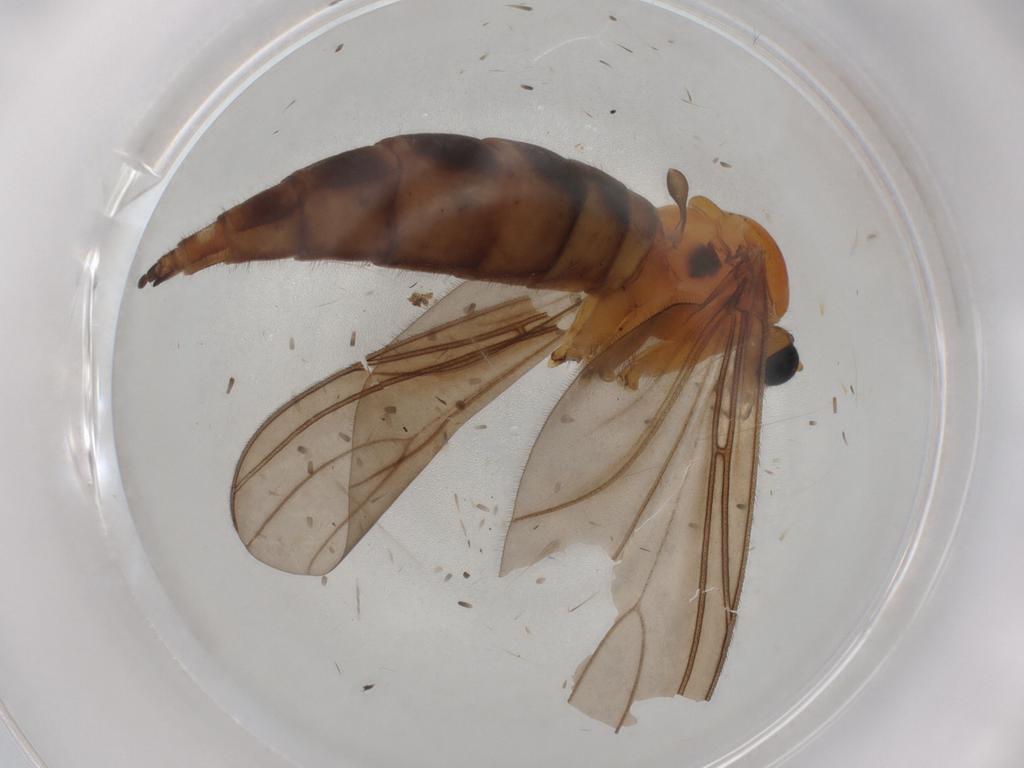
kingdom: Animalia
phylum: Arthropoda
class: Insecta
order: Diptera
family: Sciaridae
